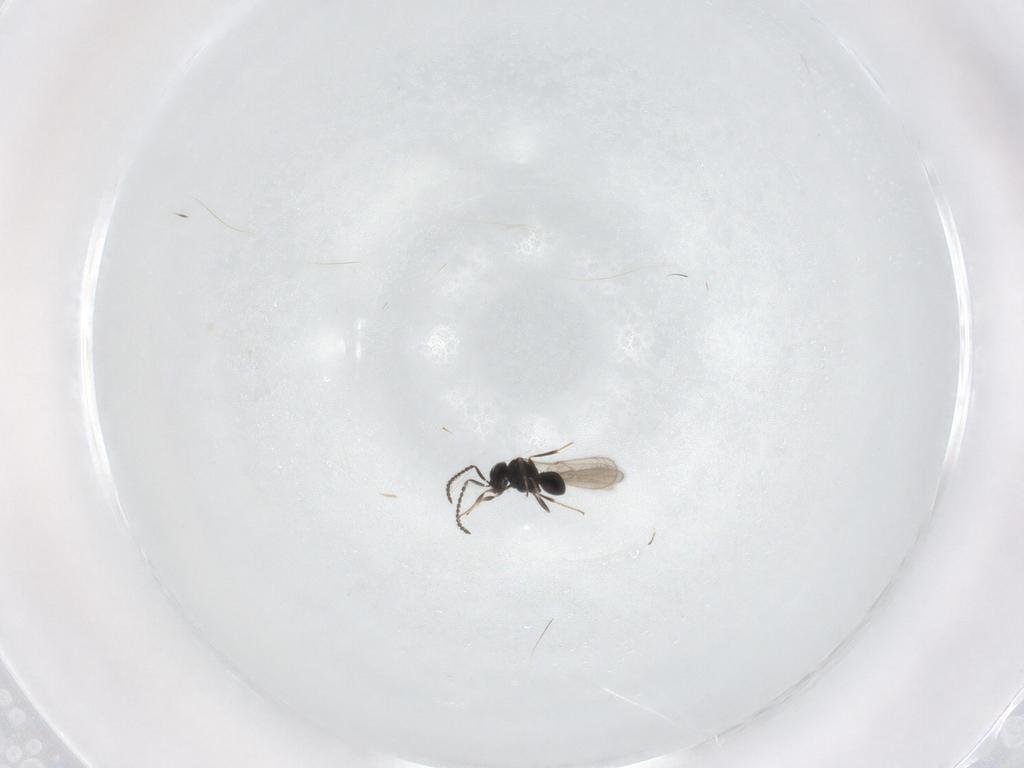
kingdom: Animalia
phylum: Arthropoda
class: Insecta
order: Hymenoptera
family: Scelionidae
